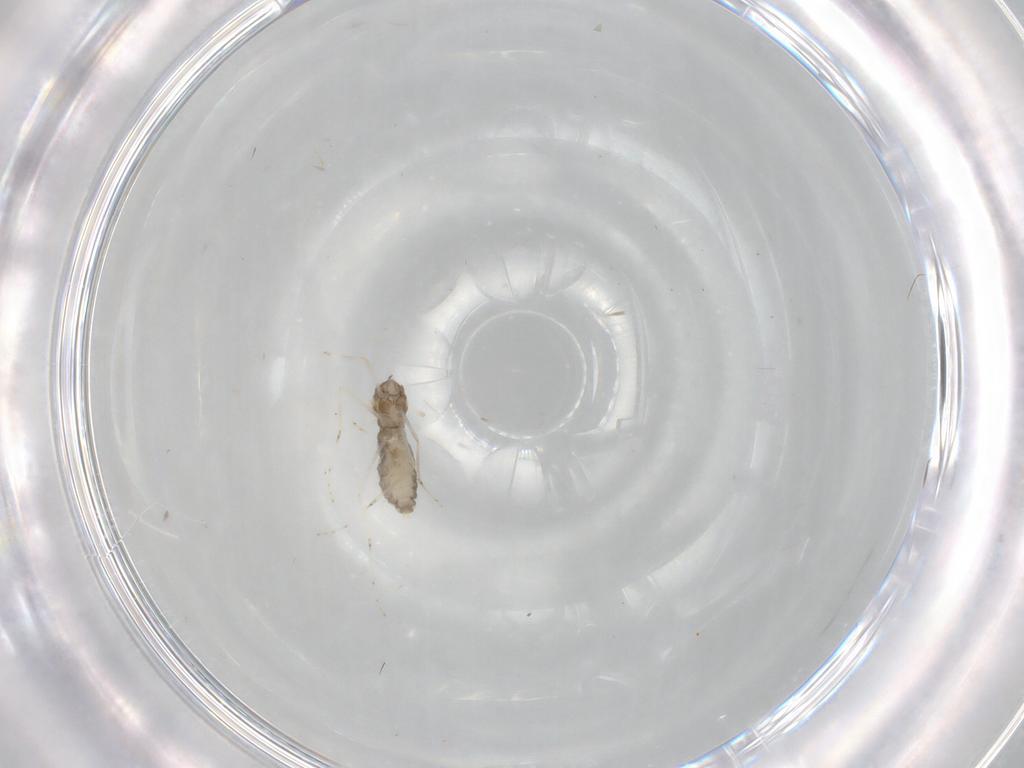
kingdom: Animalia
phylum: Arthropoda
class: Insecta
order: Diptera
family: Cecidomyiidae
